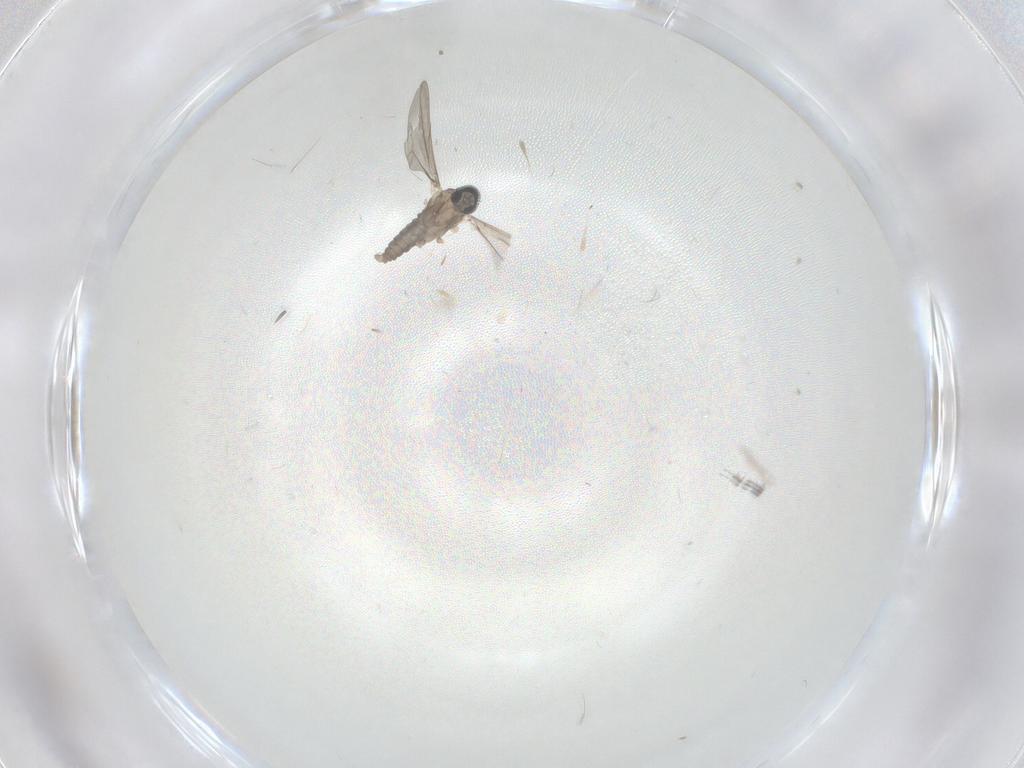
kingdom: Animalia
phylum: Arthropoda
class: Insecta
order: Diptera
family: Cecidomyiidae
